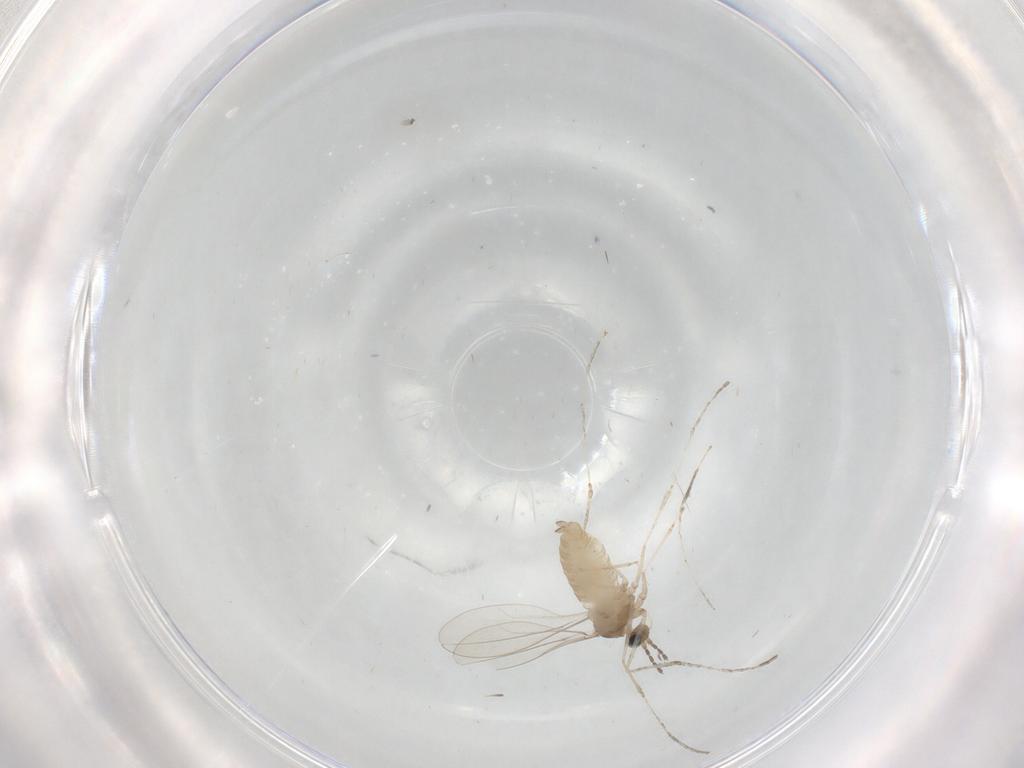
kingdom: Animalia
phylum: Arthropoda
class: Insecta
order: Diptera
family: Cecidomyiidae
